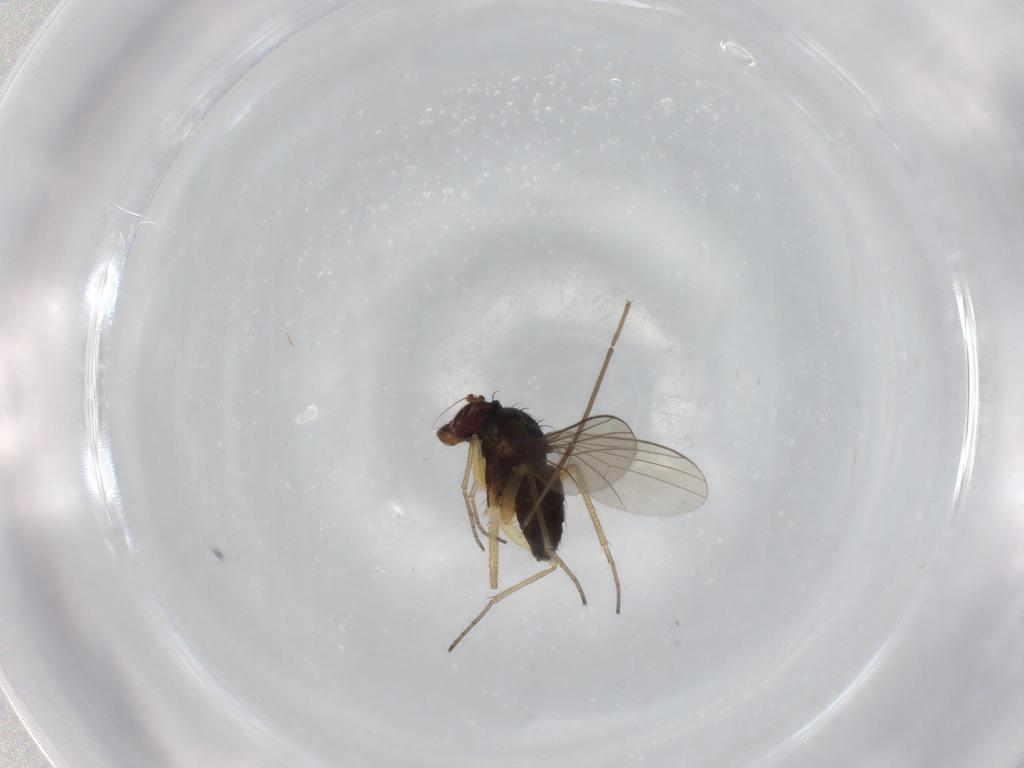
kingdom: Animalia
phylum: Arthropoda
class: Insecta
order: Diptera
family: Dolichopodidae
